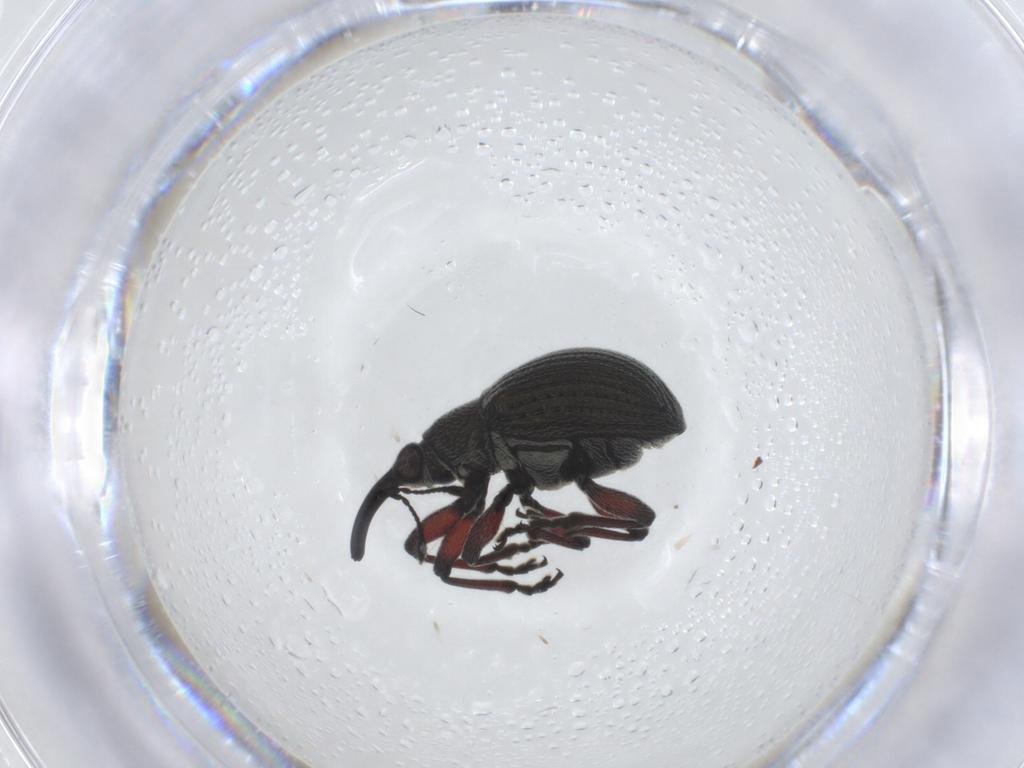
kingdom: Animalia
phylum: Arthropoda
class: Insecta
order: Coleoptera
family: Brentidae
